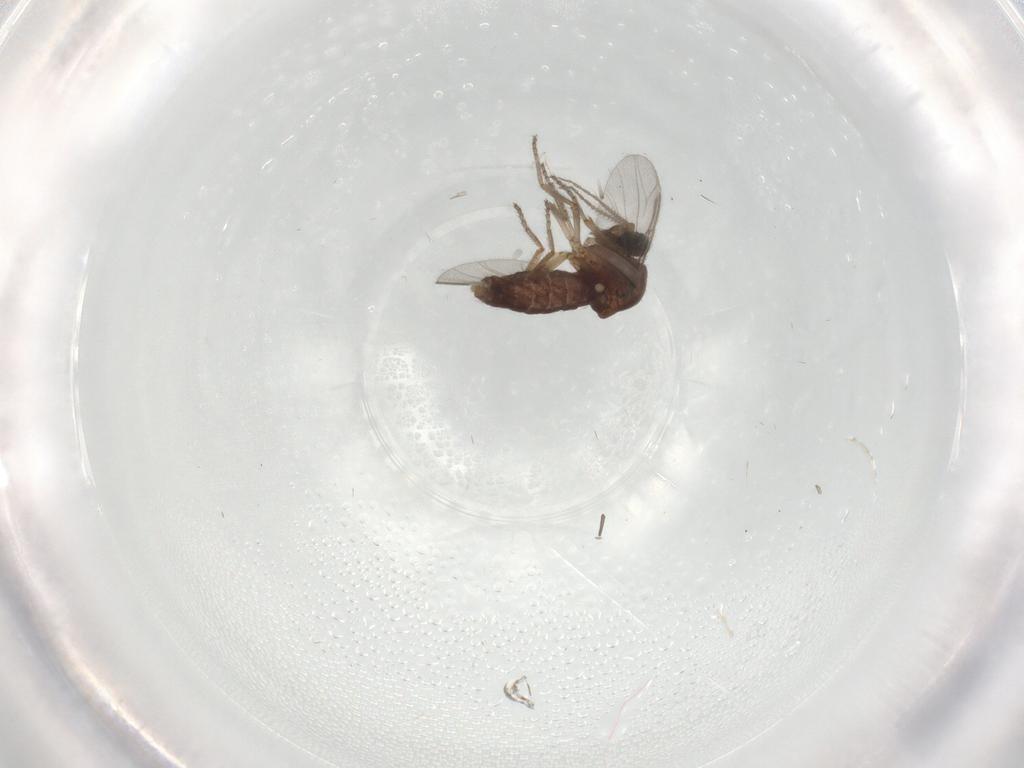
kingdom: Animalia
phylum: Arthropoda
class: Insecta
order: Diptera
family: Ceratopogonidae
